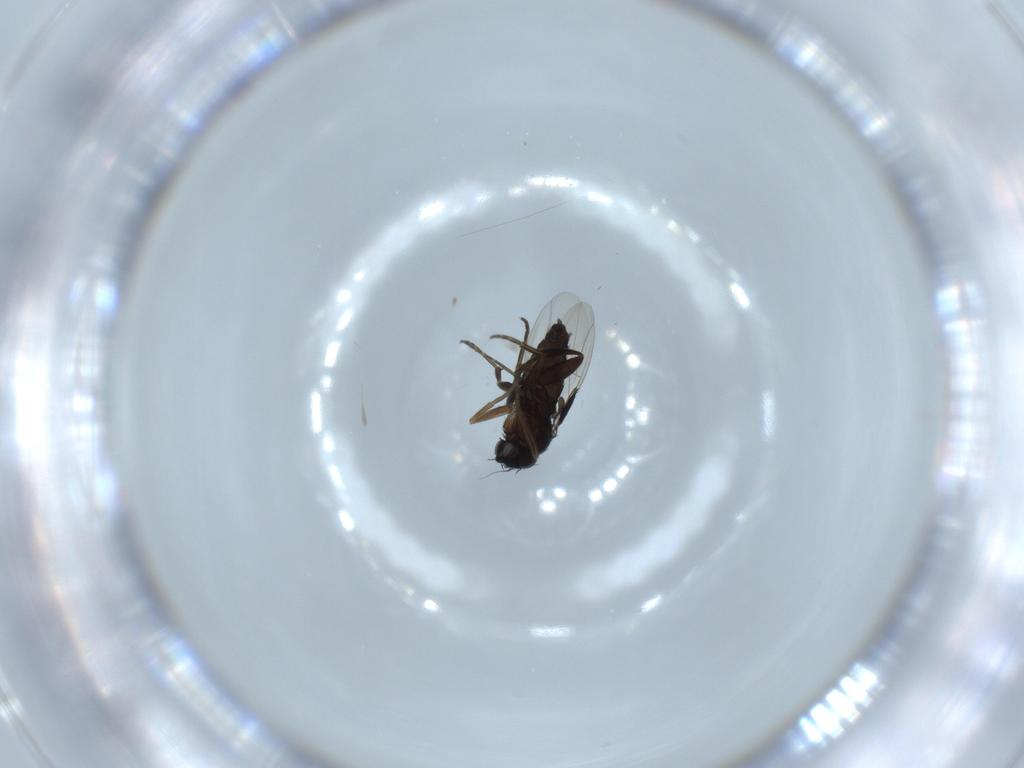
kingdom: Animalia
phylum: Arthropoda
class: Insecta
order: Diptera
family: Phoridae
